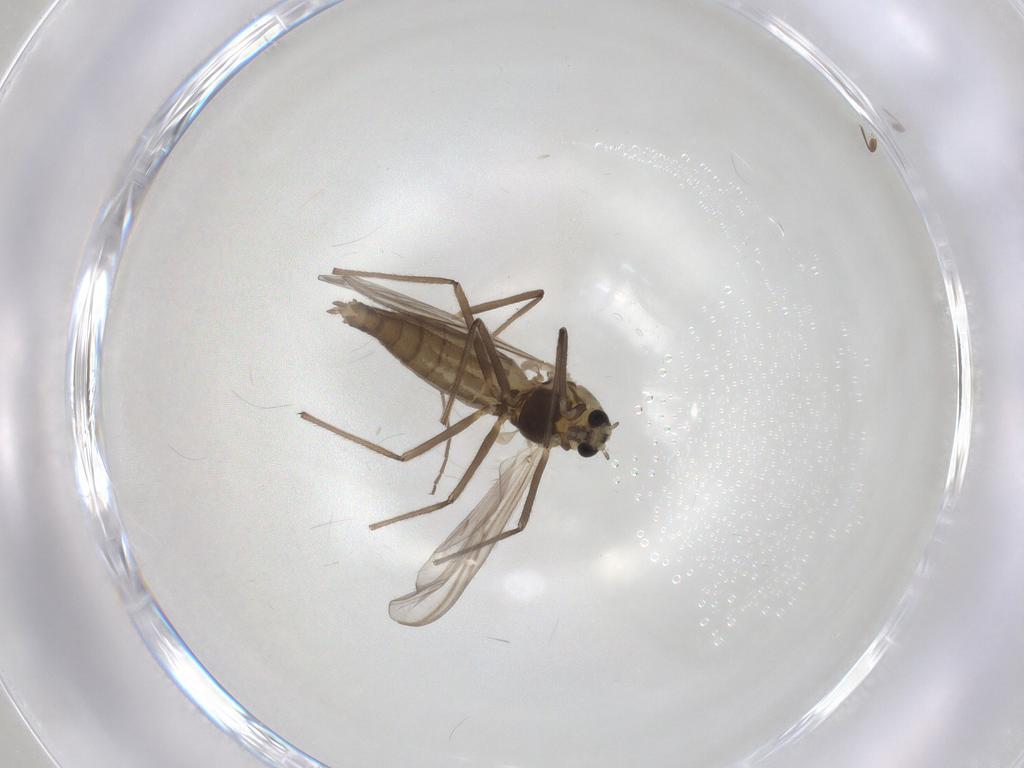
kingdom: Animalia
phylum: Arthropoda
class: Insecta
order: Diptera
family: Chironomidae
